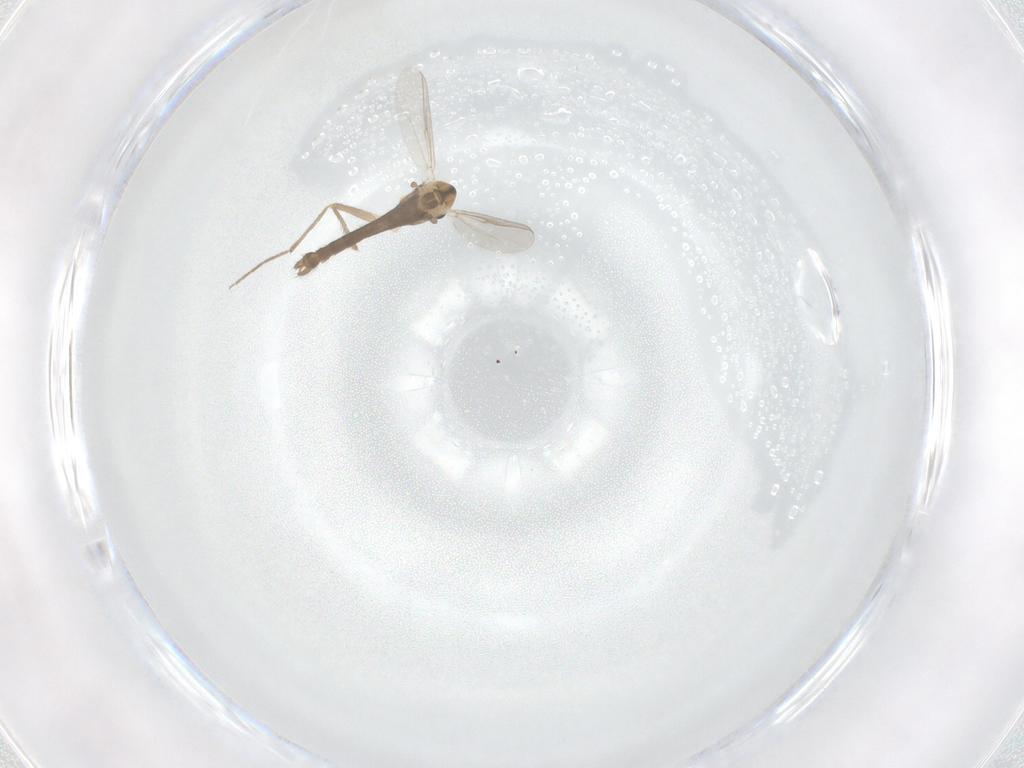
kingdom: Animalia
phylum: Arthropoda
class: Insecta
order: Diptera
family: Chironomidae
